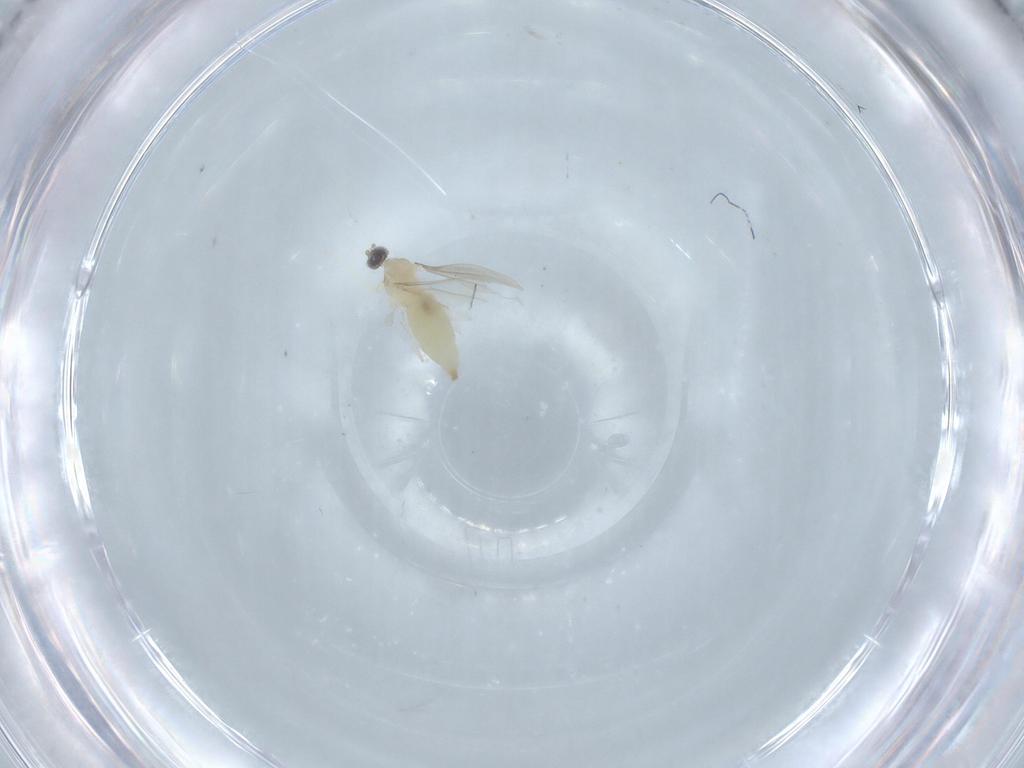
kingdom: Animalia
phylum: Arthropoda
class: Insecta
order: Diptera
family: Dolichopodidae
